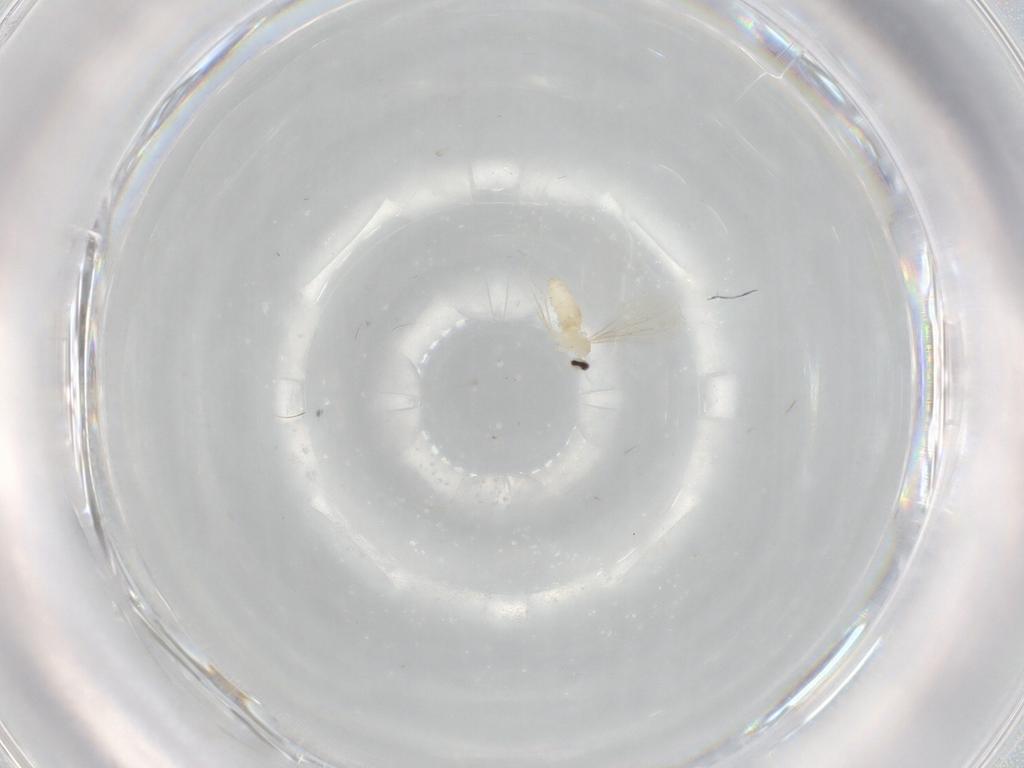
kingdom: Animalia
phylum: Arthropoda
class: Insecta
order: Diptera
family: Cecidomyiidae
